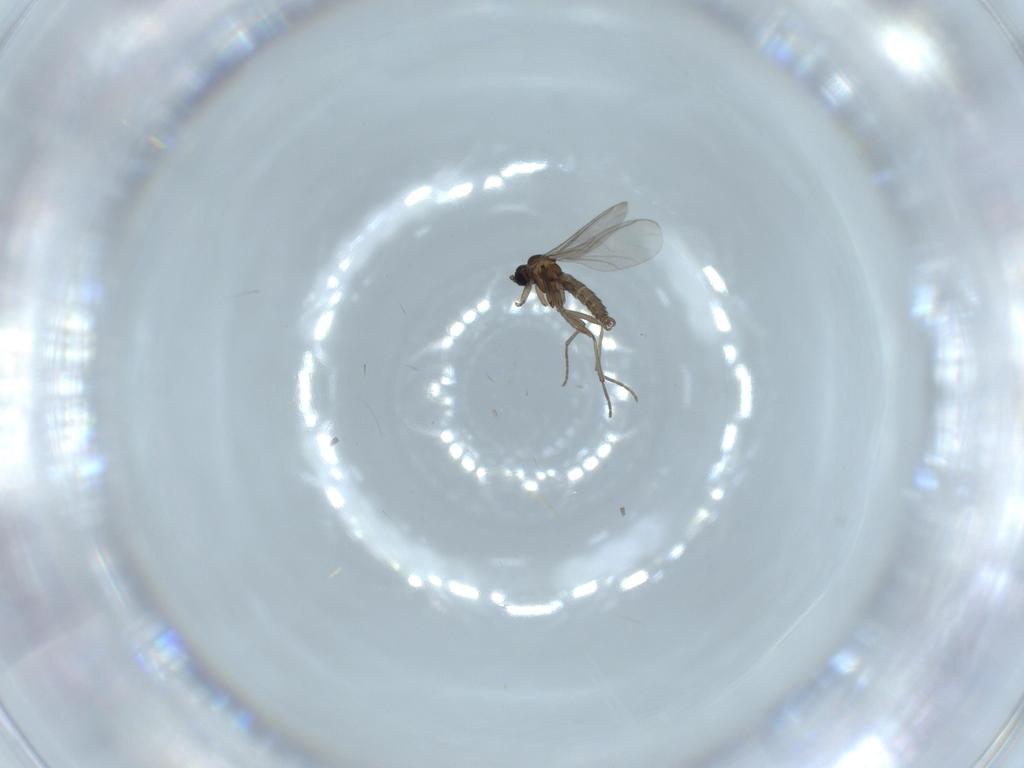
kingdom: Animalia
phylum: Arthropoda
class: Insecta
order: Diptera
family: Sciaridae
